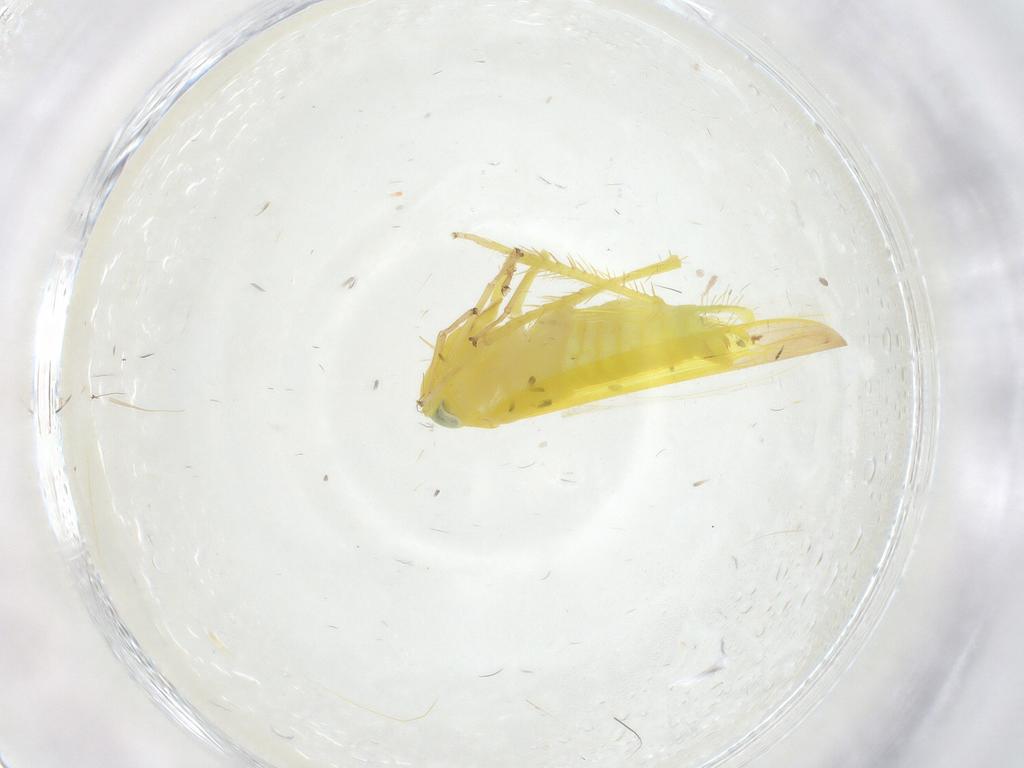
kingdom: Animalia
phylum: Arthropoda
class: Insecta
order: Hemiptera
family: Cicadellidae
